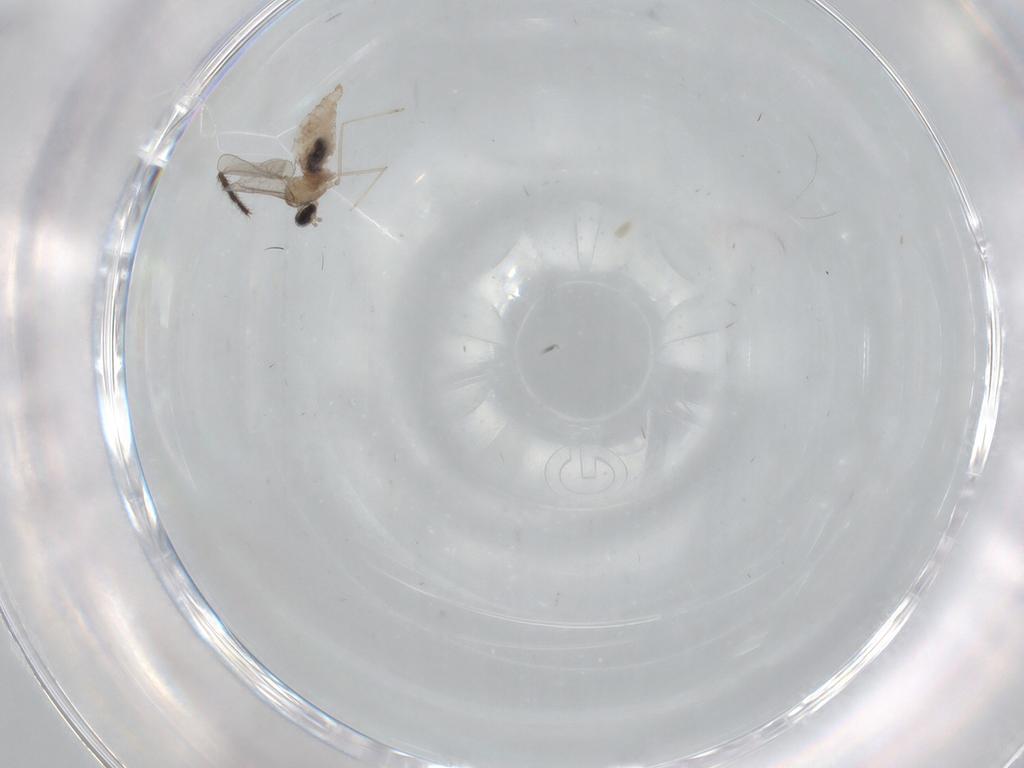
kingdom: Animalia
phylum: Arthropoda
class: Insecta
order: Diptera
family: Chironomidae
